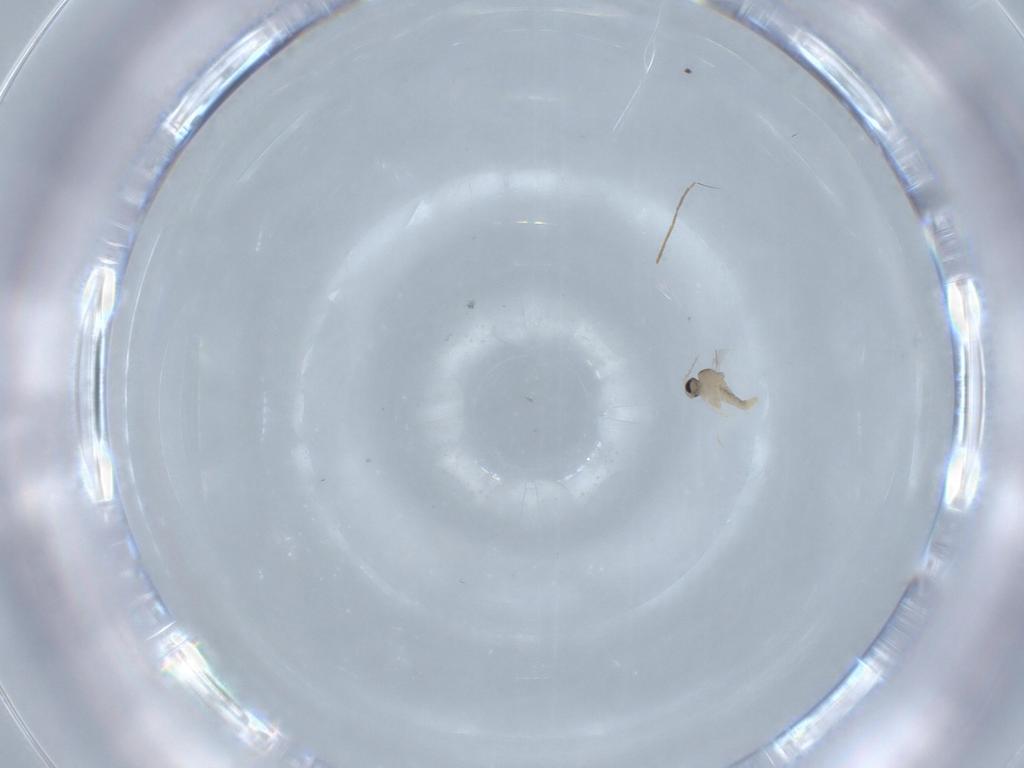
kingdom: Animalia
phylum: Arthropoda
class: Insecta
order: Diptera
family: Cecidomyiidae
